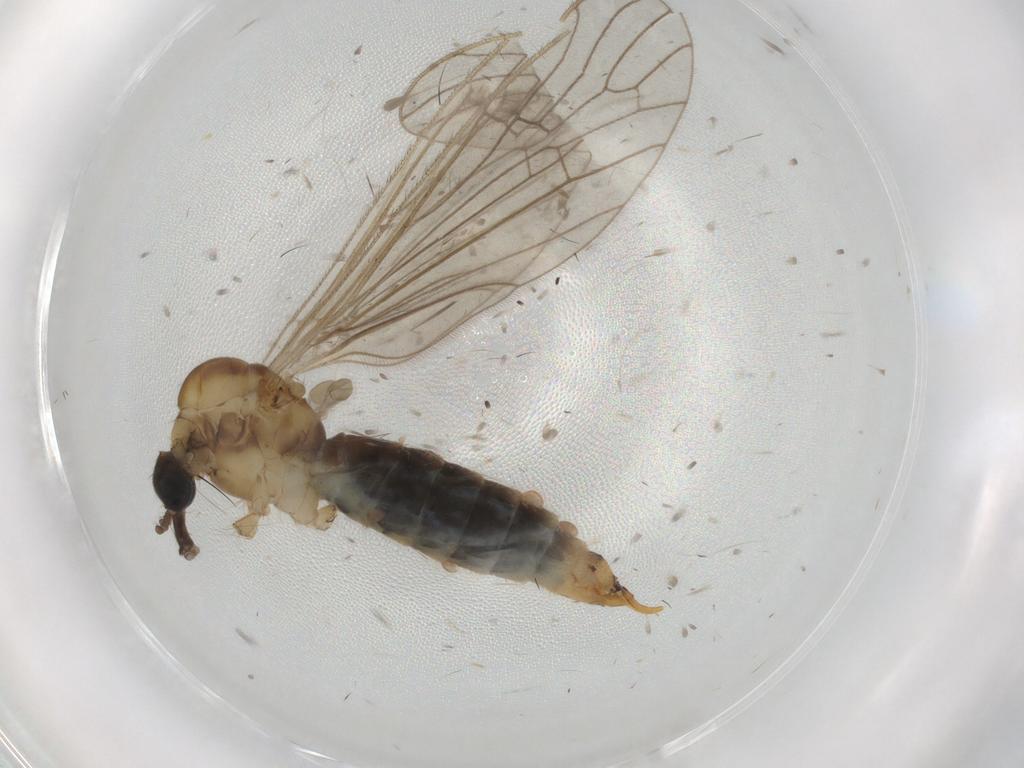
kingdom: Animalia
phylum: Arthropoda
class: Insecta
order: Diptera
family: Limoniidae
